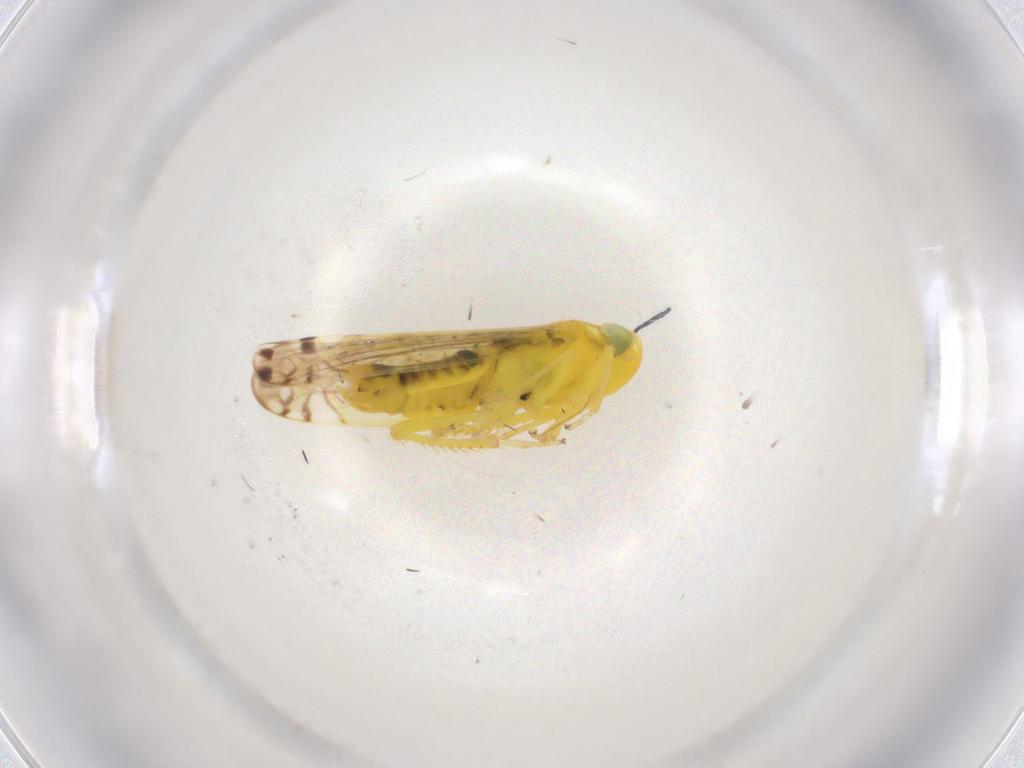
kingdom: Animalia
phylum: Arthropoda
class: Insecta
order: Hemiptera
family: Cicadellidae
